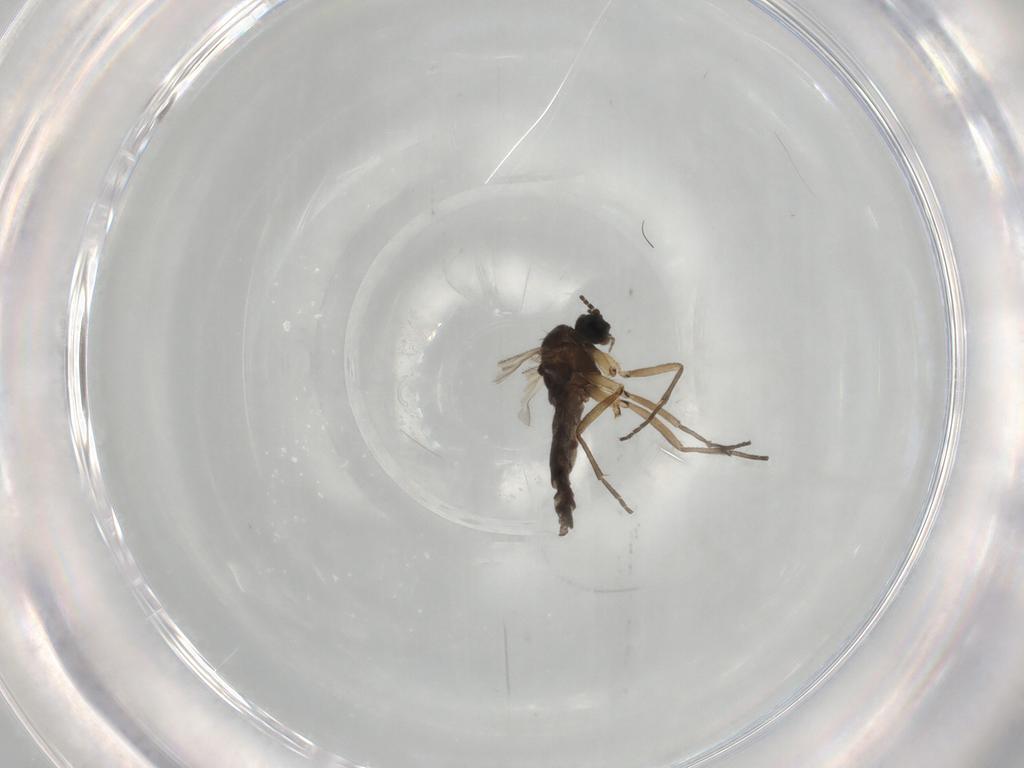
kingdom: Animalia
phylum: Arthropoda
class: Insecta
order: Diptera
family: Sciaridae
